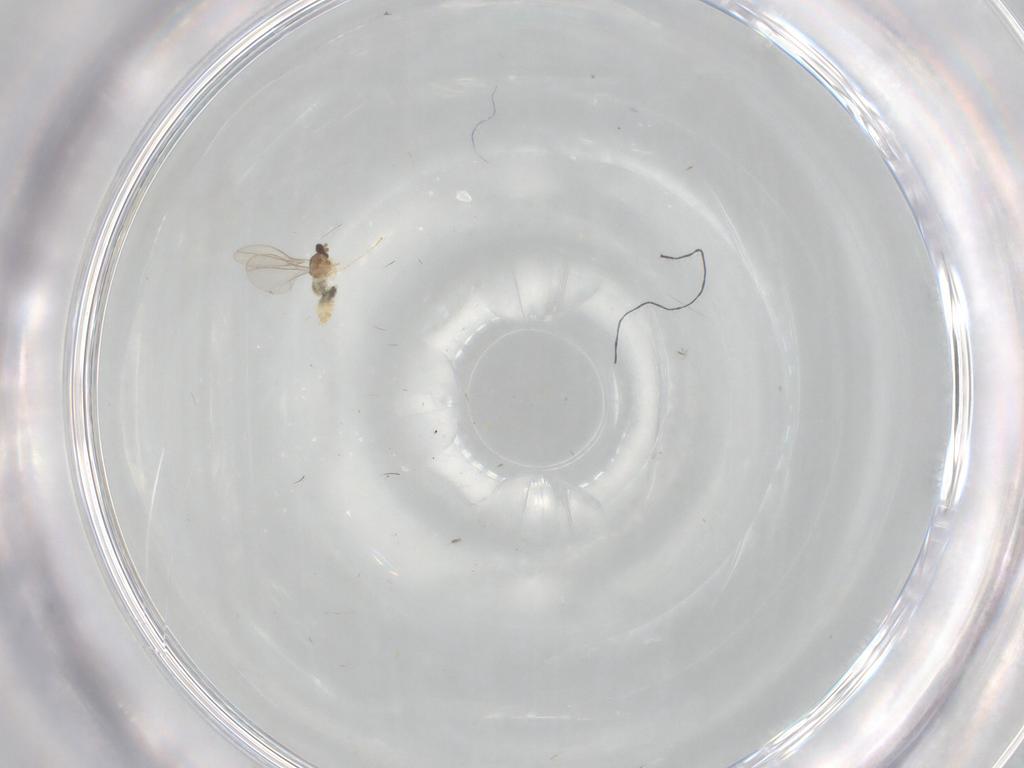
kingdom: Animalia
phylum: Arthropoda
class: Insecta
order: Diptera
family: Cecidomyiidae
